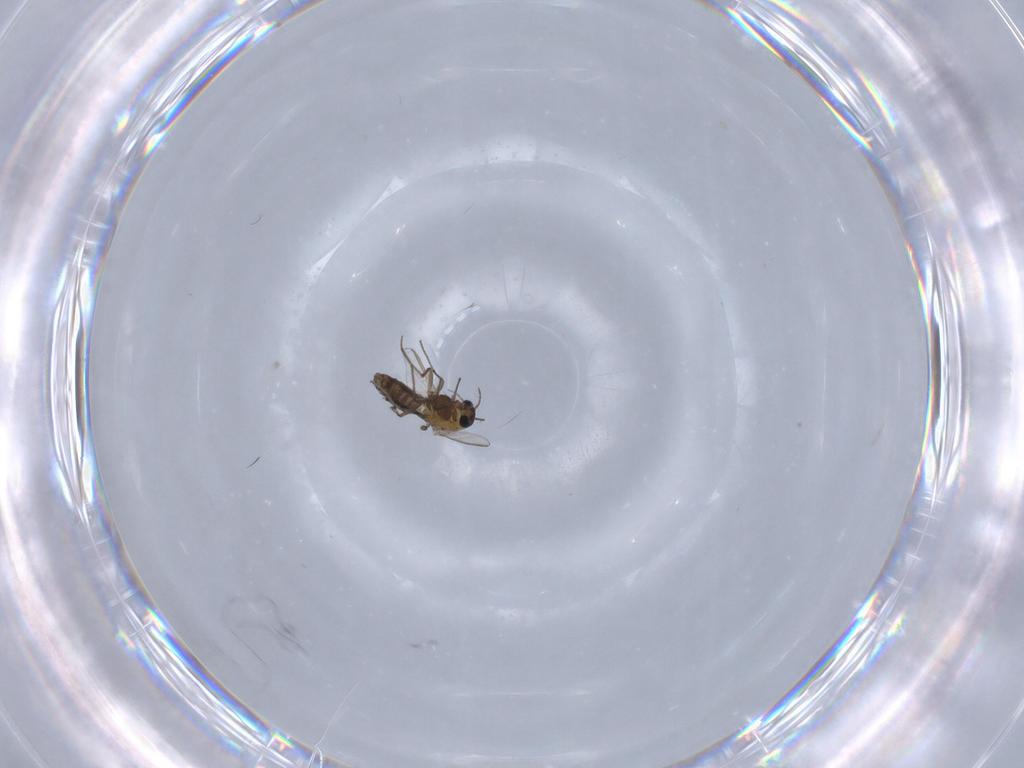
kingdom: Animalia
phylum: Arthropoda
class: Insecta
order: Diptera
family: Chironomidae
